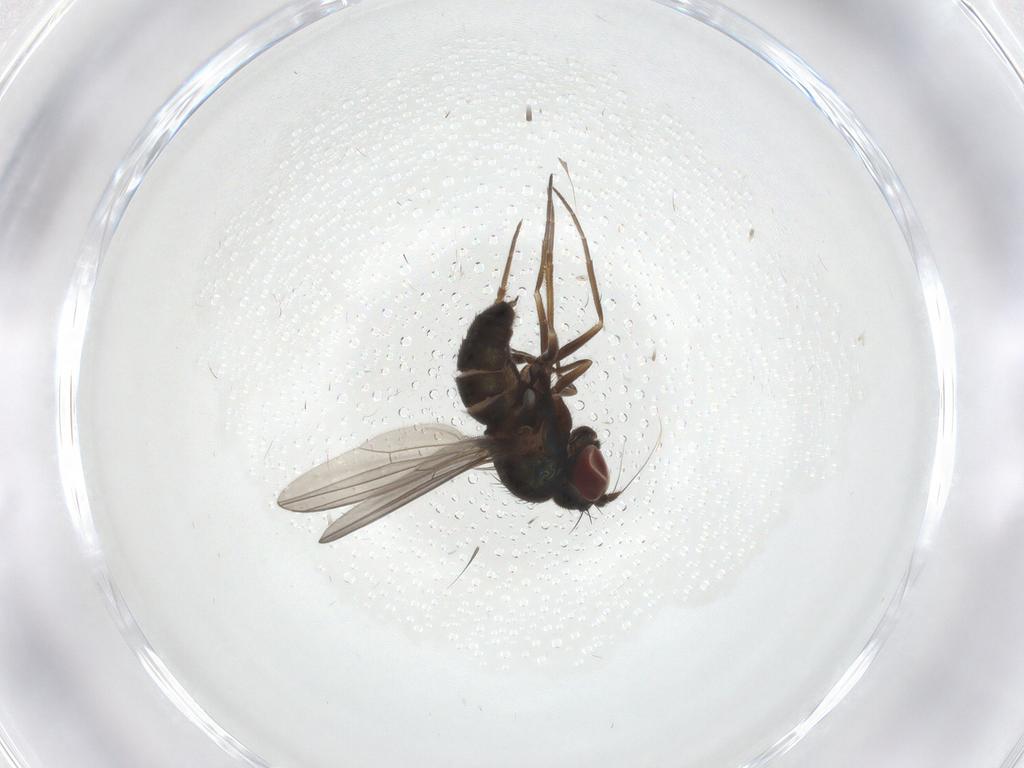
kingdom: Animalia
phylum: Arthropoda
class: Insecta
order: Diptera
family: Dolichopodidae
